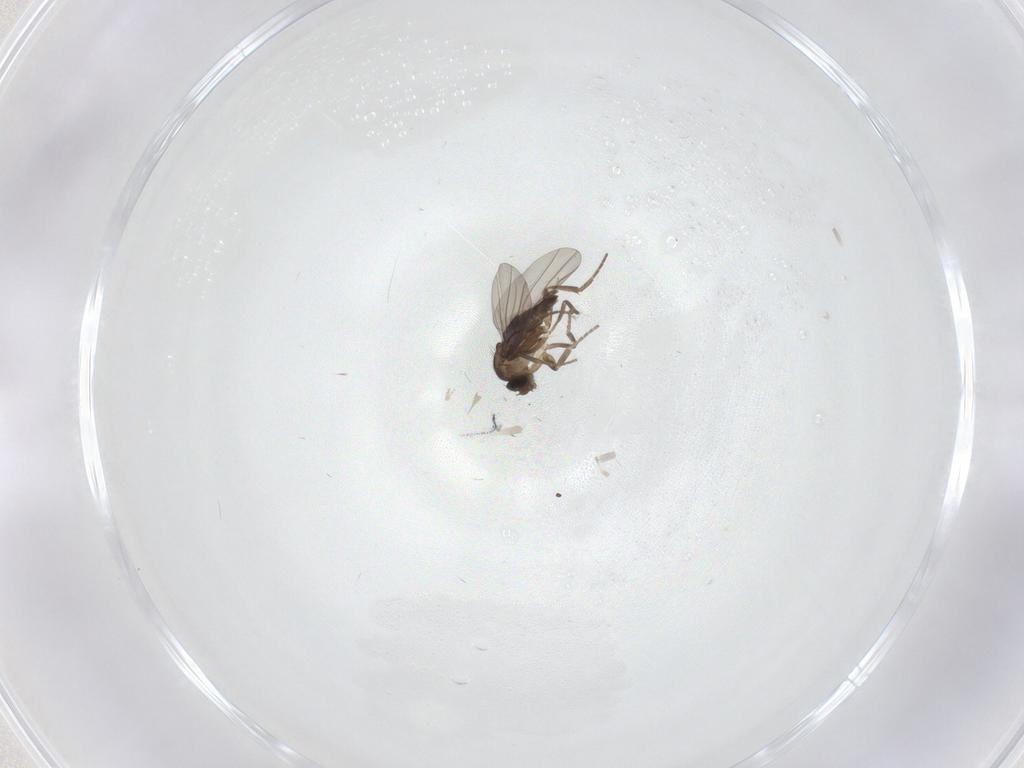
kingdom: Animalia
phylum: Arthropoda
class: Insecta
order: Diptera
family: Chironomidae
